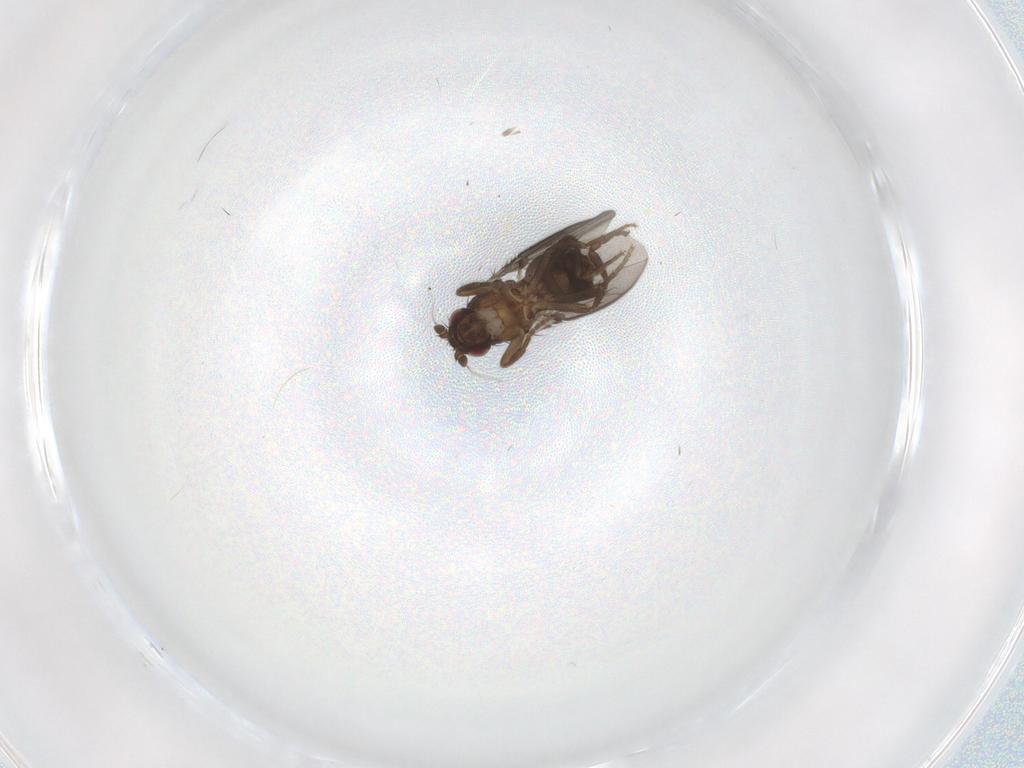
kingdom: Animalia
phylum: Arthropoda
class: Insecta
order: Diptera
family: Sphaeroceridae
